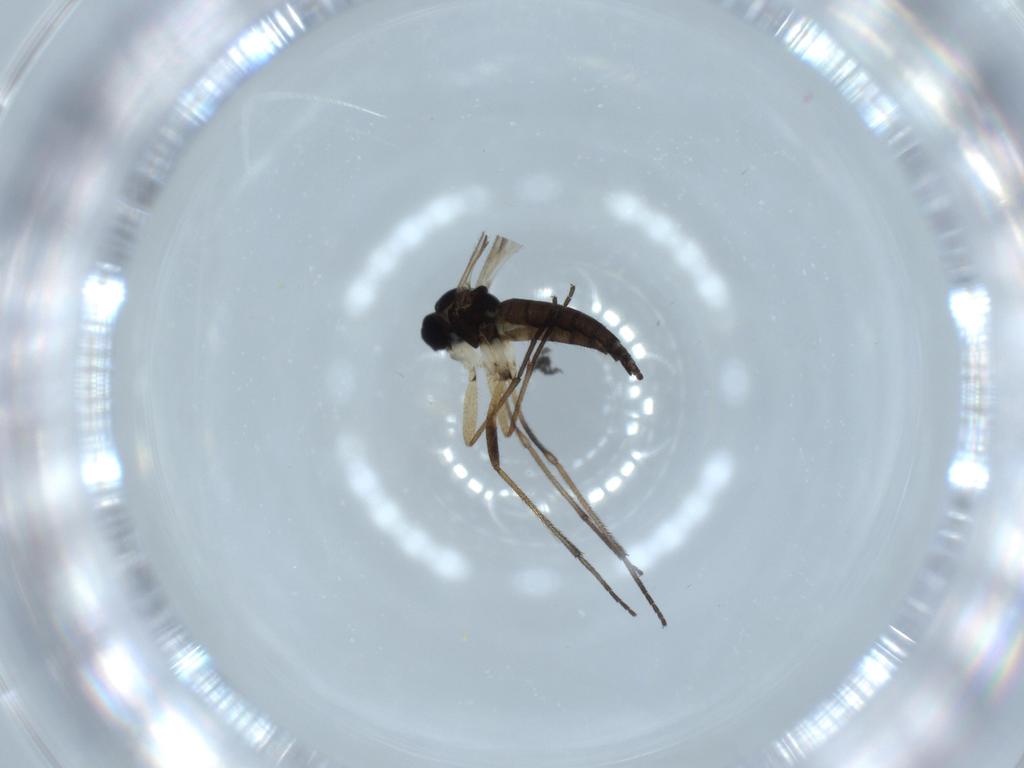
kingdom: Animalia
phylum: Arthropoda
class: Insecta
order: Diptera
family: Sciaridae
